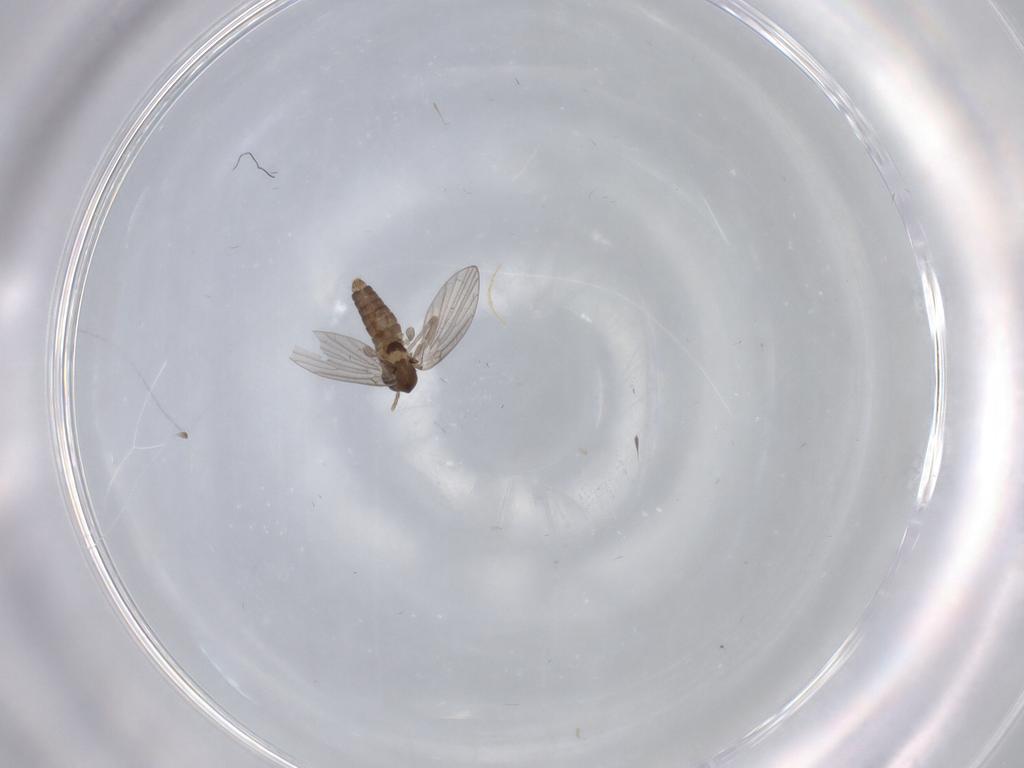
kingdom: Animalia
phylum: Arthropoda
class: Insecta
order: Diptera
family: Psychodidae
